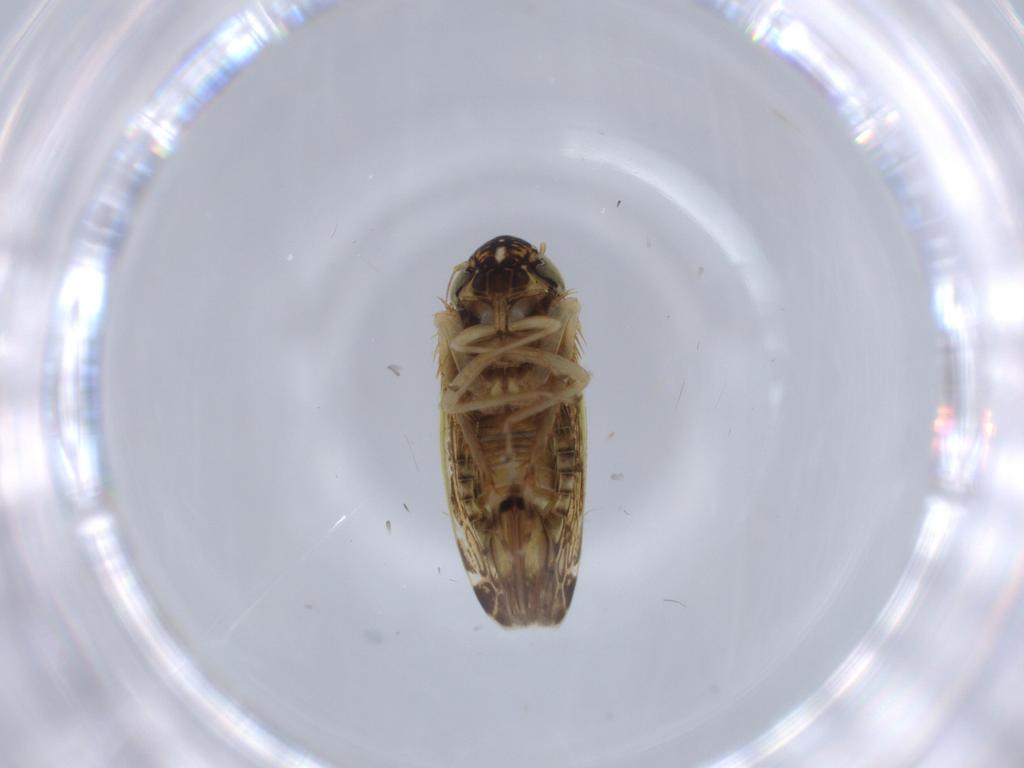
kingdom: Animalia
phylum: Arthropoda
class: Insecta
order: Hemiptera
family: Cicadellidae
